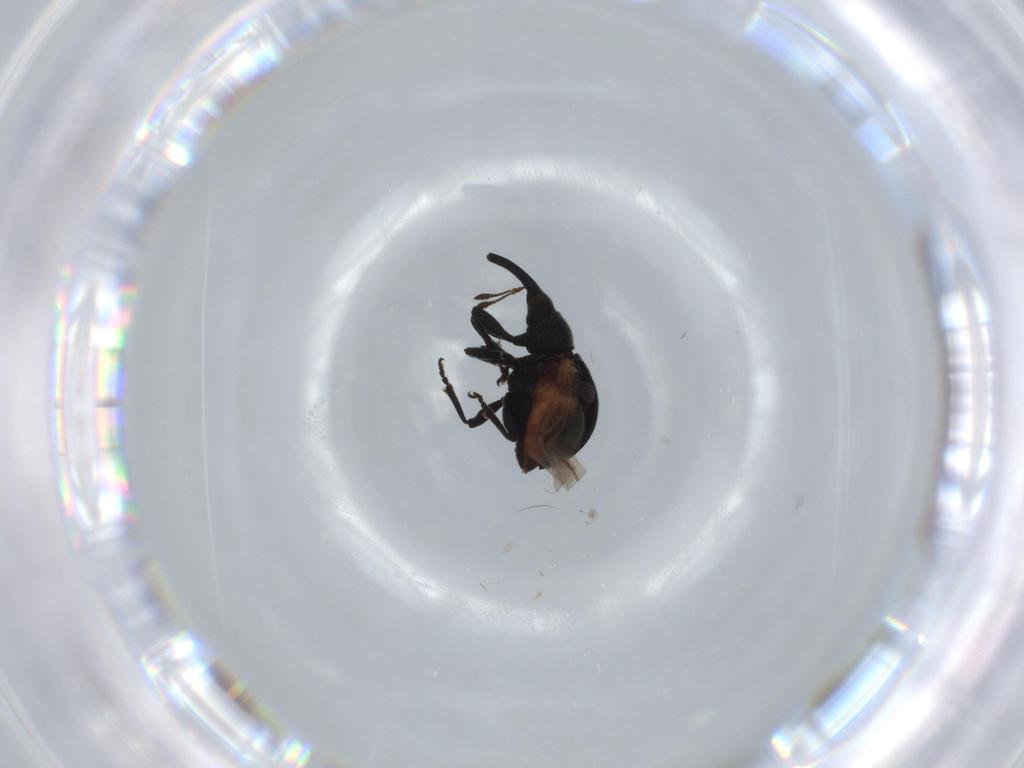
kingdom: Animalia
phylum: Arthropoda
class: Insecta
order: Coleoptera
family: Brentidae
